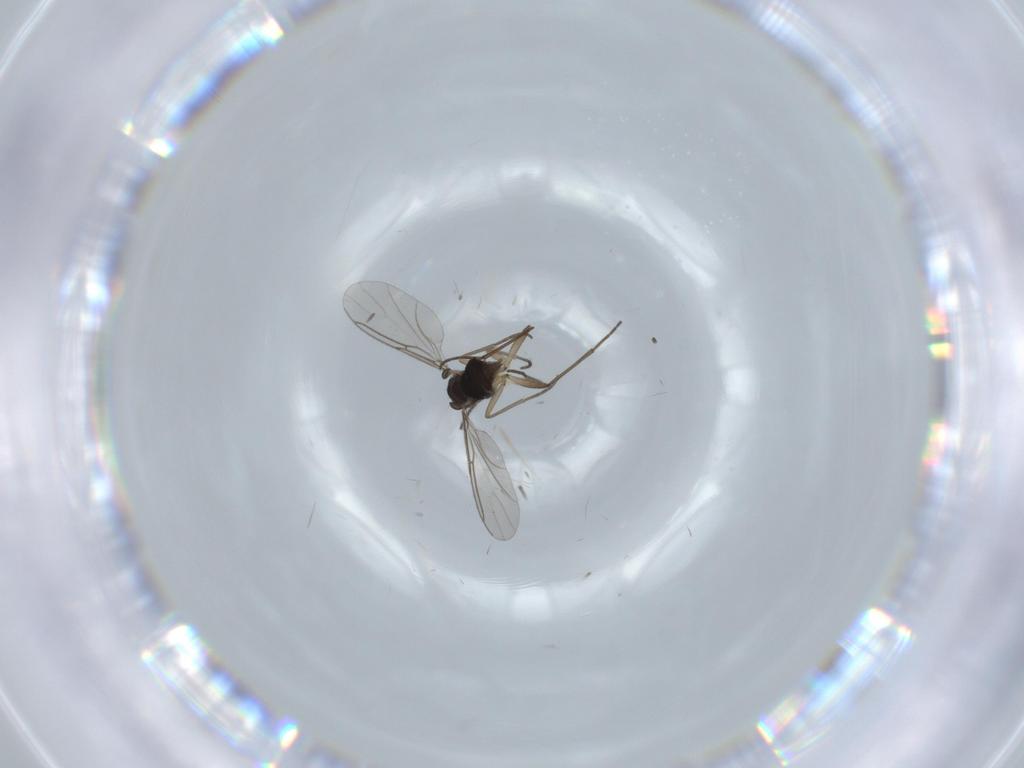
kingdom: Animalia
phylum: Arthropoda
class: Insecta
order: Diptera
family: Sciaridae
